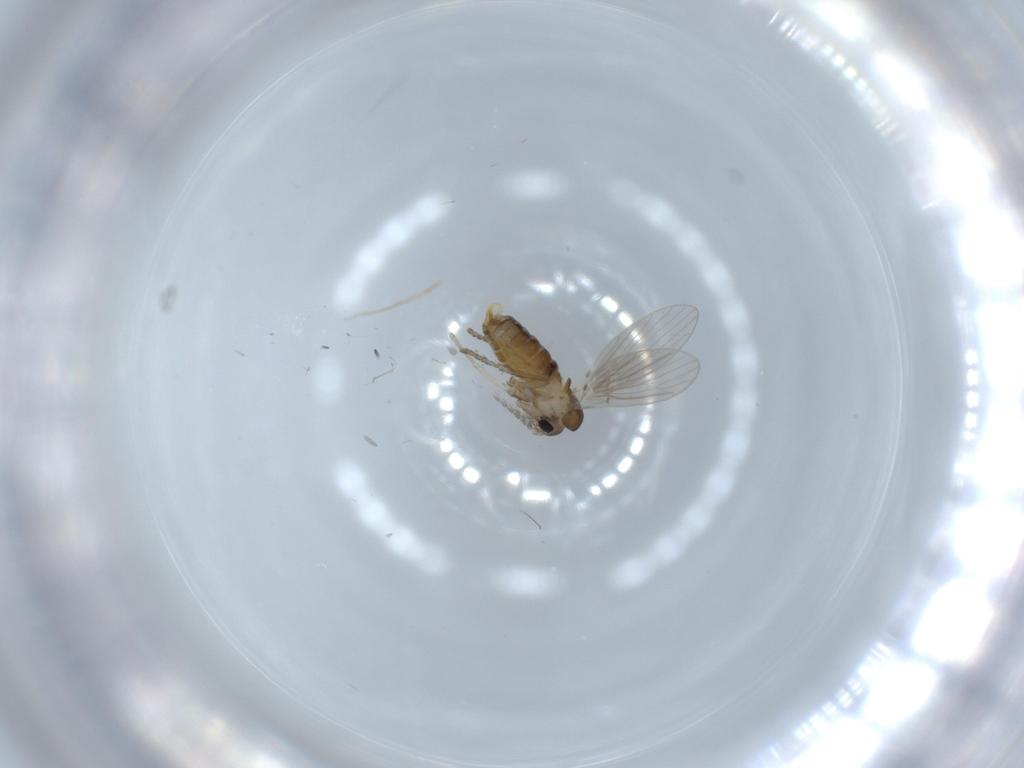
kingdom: Animalia
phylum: Arthropoda
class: Insecta
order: Diptera
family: Psychodidae
